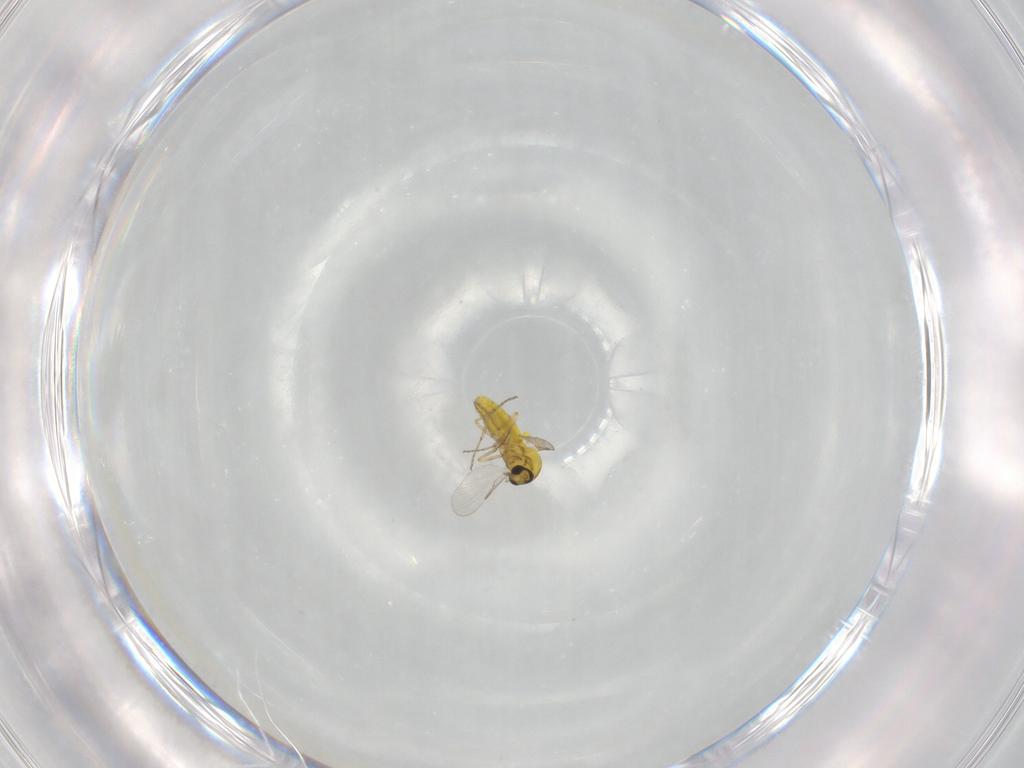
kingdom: Animalia
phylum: Arthropoda
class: Insecta
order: Diptera
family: Ceratopogonidae
